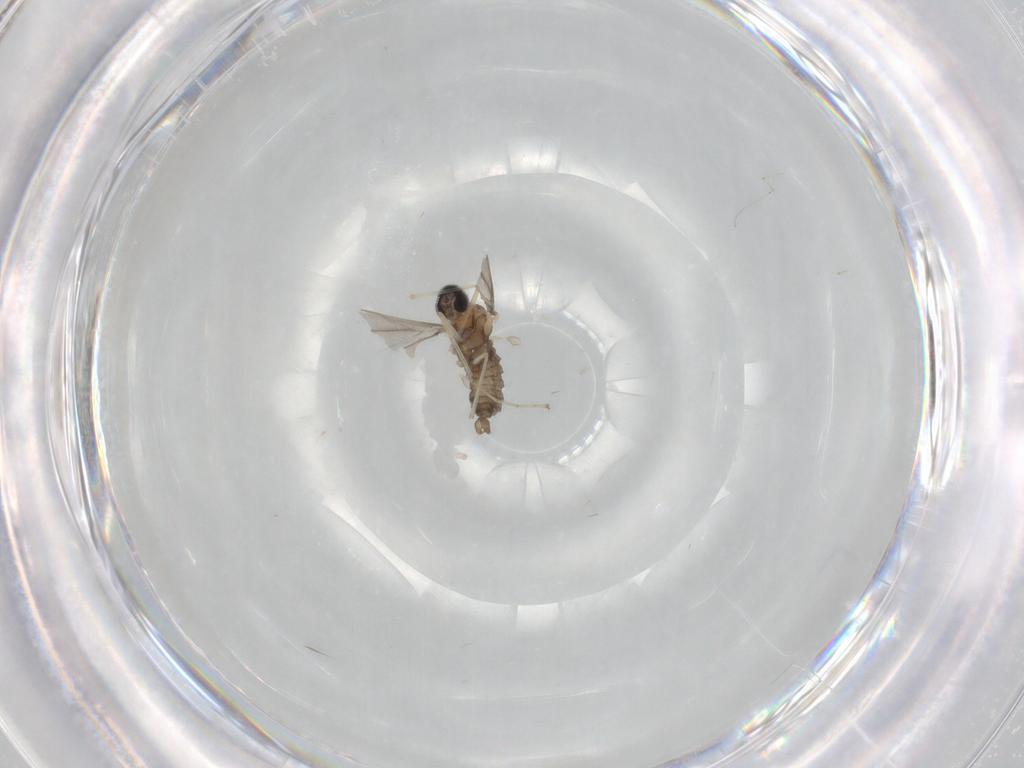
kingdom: Animalia
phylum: Arthropoda
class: Insecta
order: Diptera
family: Cecidomyiidae
